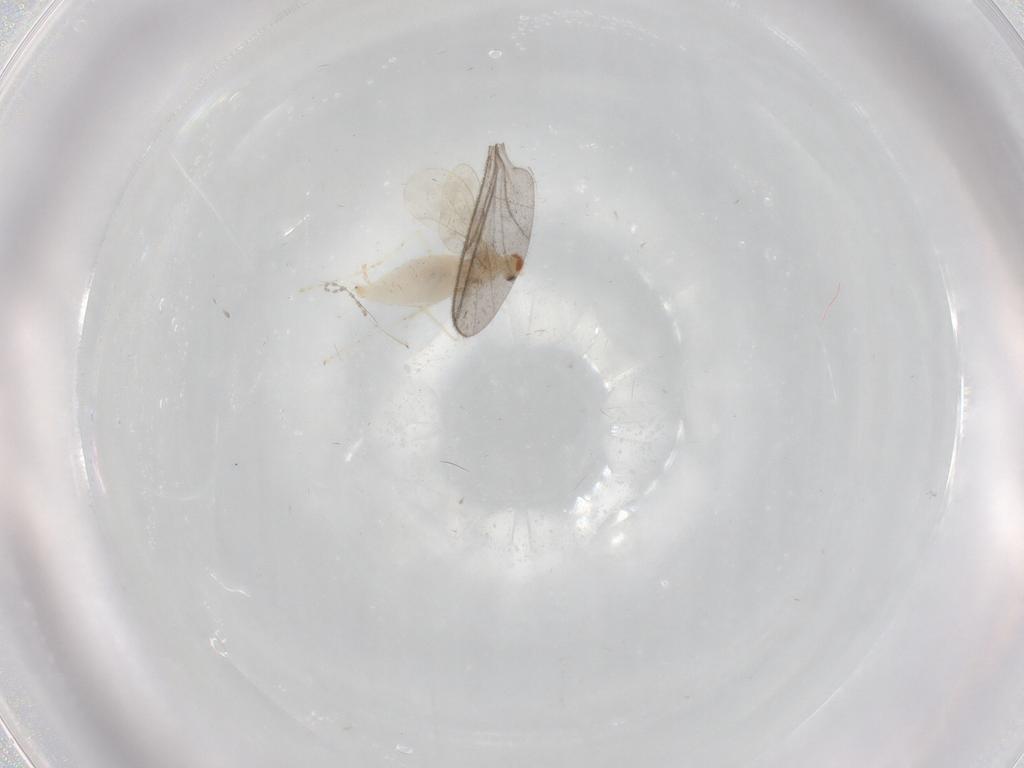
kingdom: Animalia
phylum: Arthropoda
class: Insecta
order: Diptera
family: Cecidomyiidae
